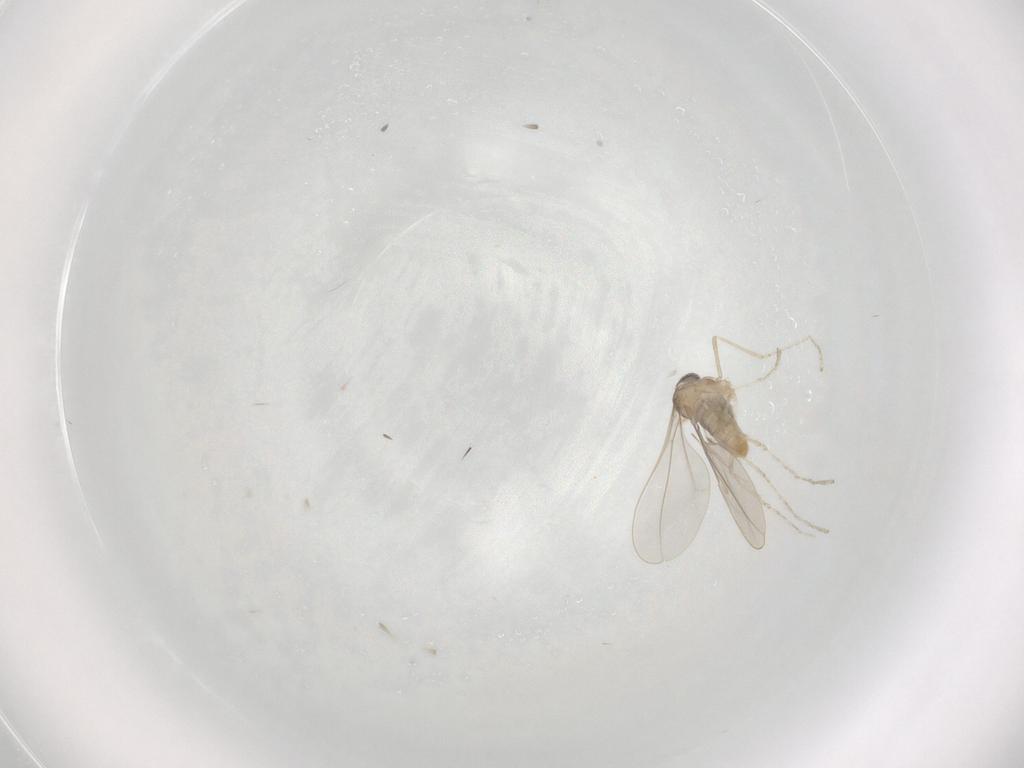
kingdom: Animalia
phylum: Arthropoda
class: Insecta
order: Diptera
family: Cecidomyiidae
